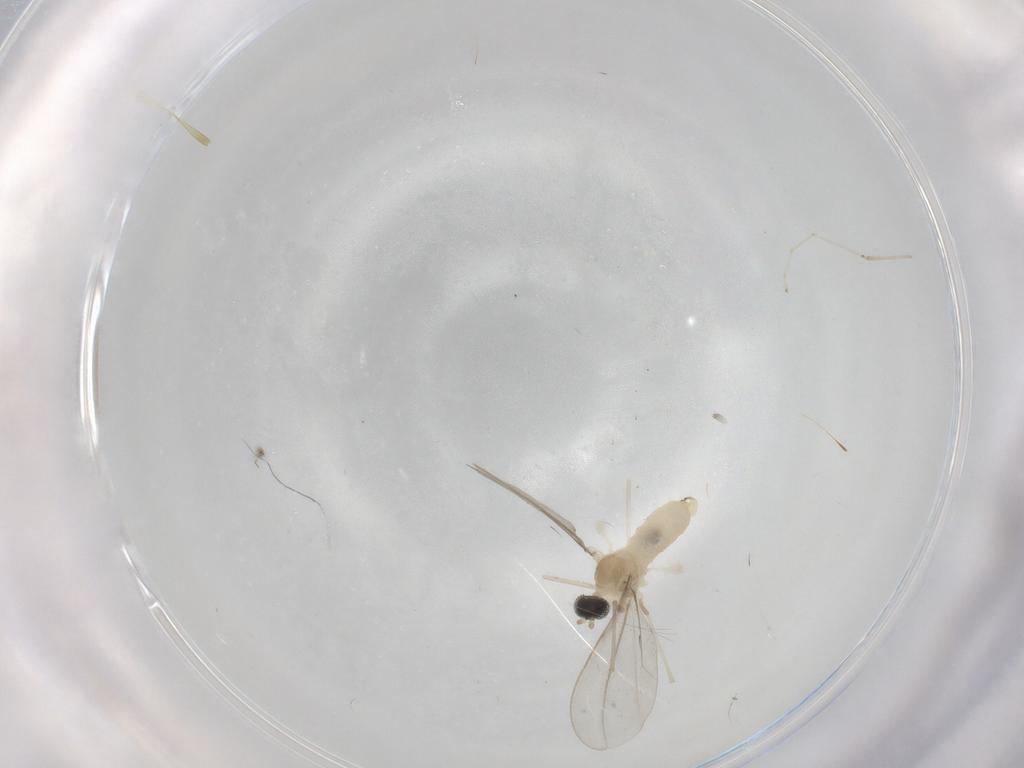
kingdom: Animalia
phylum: Arthropoda
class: Insecta
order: Diptera
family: Cecidomyiidae
